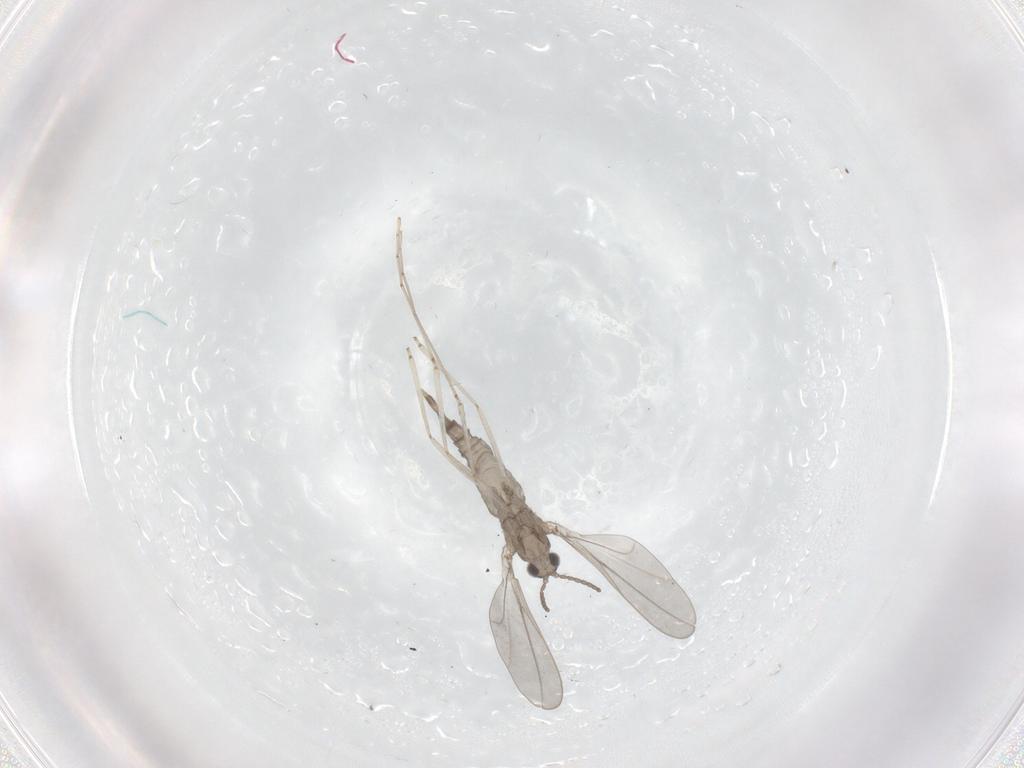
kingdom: Animalia
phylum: Arthropoda
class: Insecta
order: Diptera
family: Cecidomyiidae
